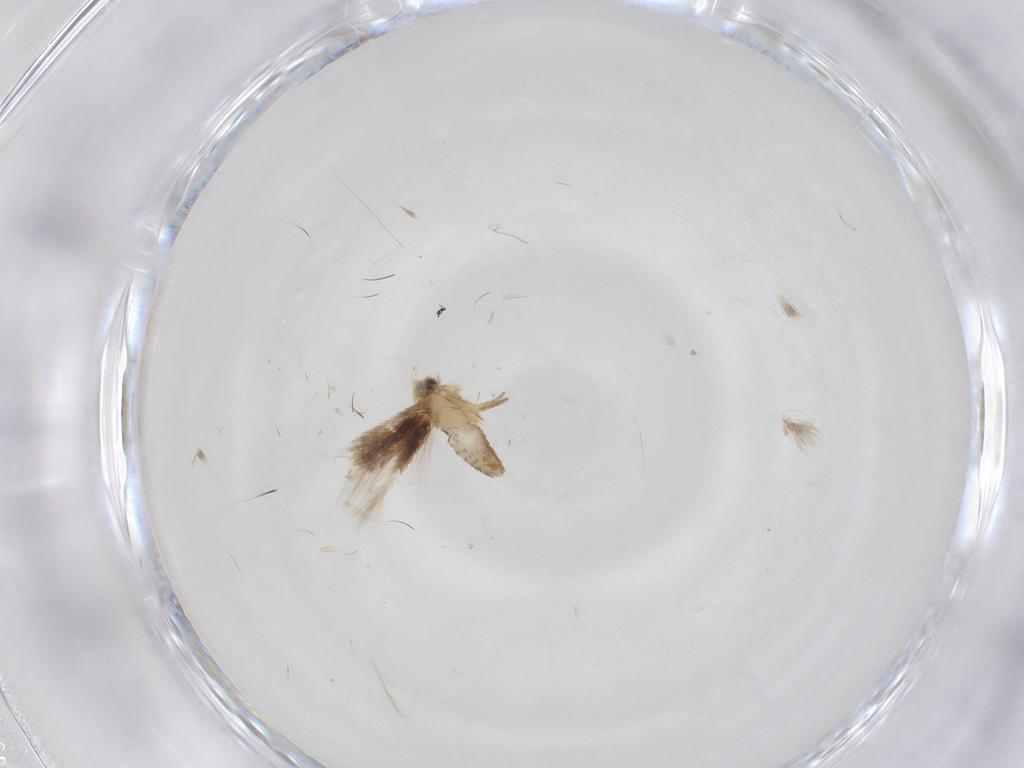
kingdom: Animalia
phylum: Arthropoda
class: Insecta
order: Lepidoptera
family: Nepticulidae
